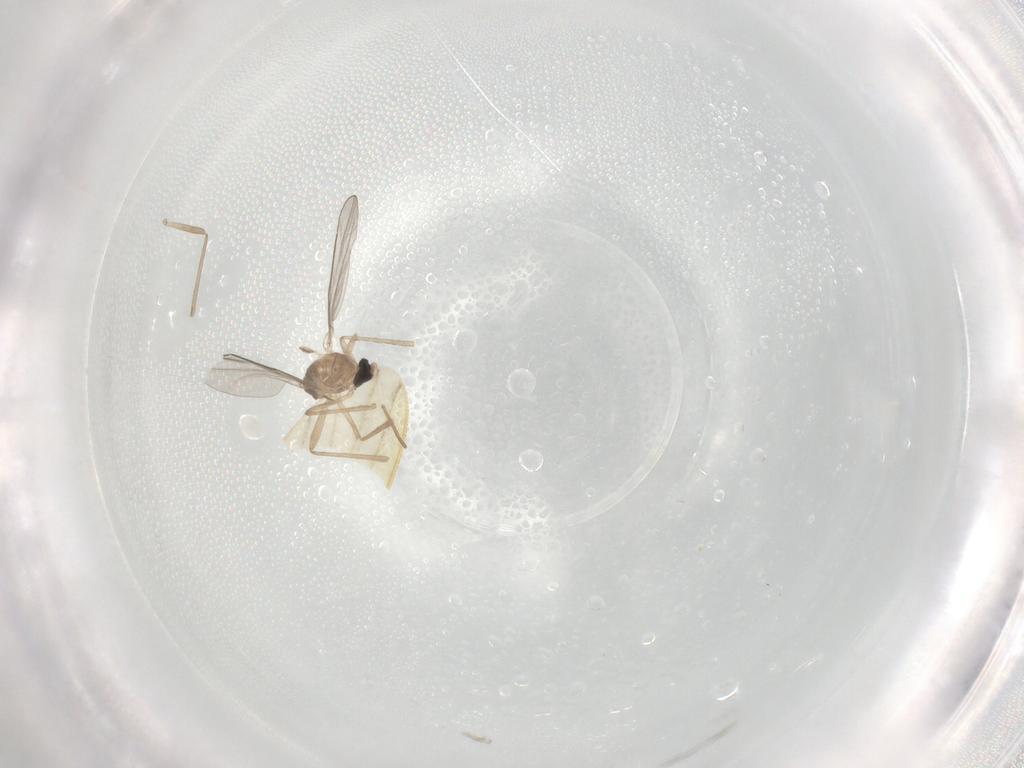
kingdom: Animalia
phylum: Arthropoda
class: Insecta
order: Diptera
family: Cecidomyiidae
